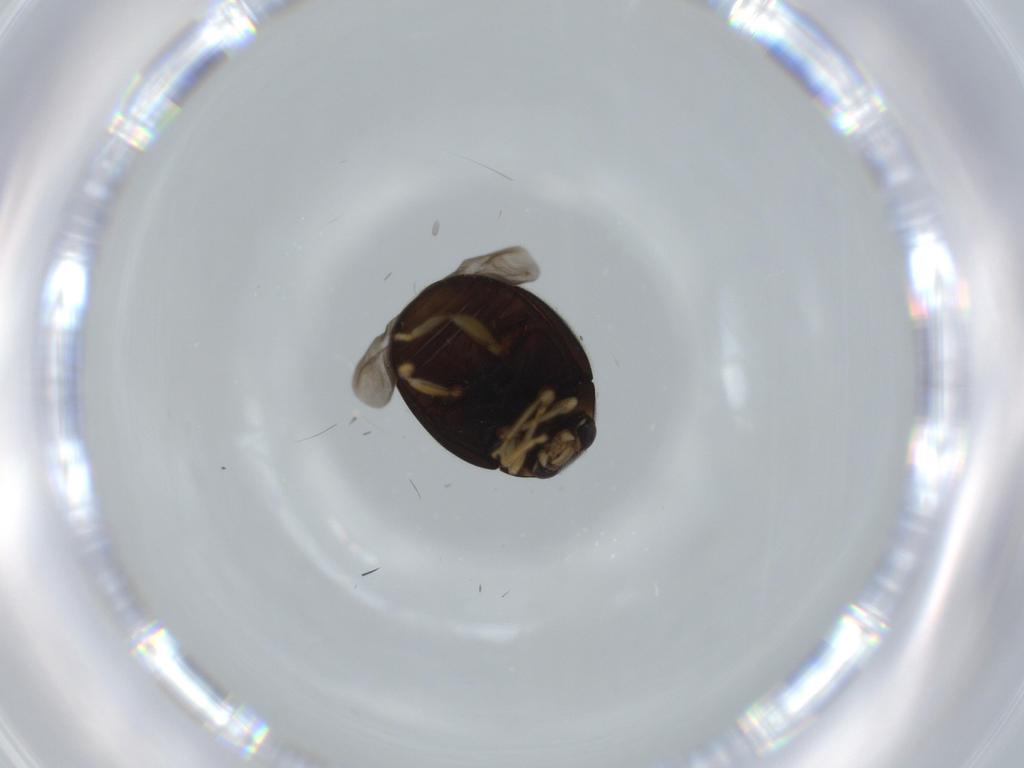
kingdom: Animalia
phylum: Arthropoda
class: Insecta
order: Coleoptera
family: Coccinellidae
